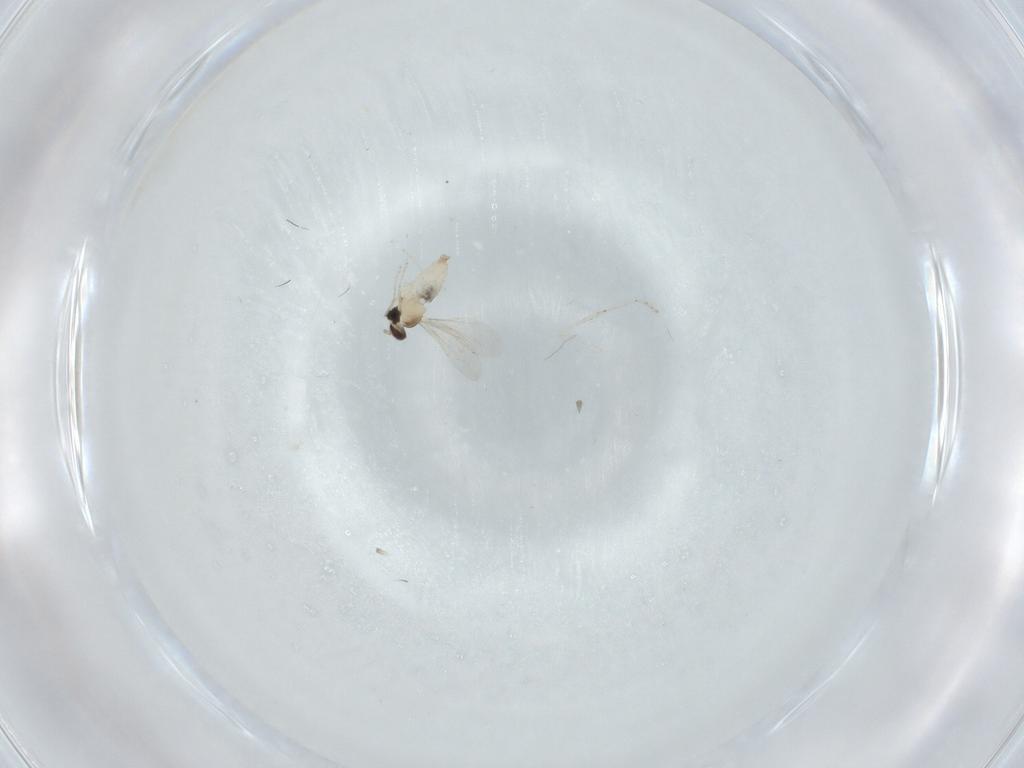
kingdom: Animalia
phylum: Arthropoda
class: Insecta
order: Diptera
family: Cecidomyiidae
